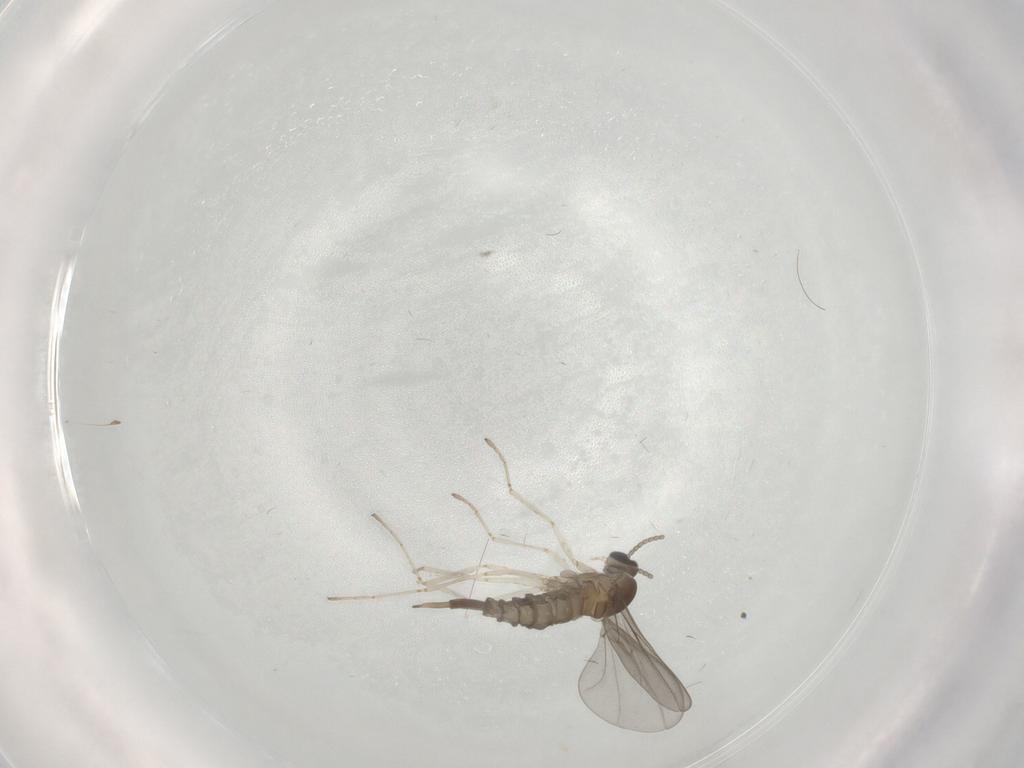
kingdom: Animalia
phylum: Arthropoda
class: Insecta
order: Diptera
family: Cecidomyiidae
